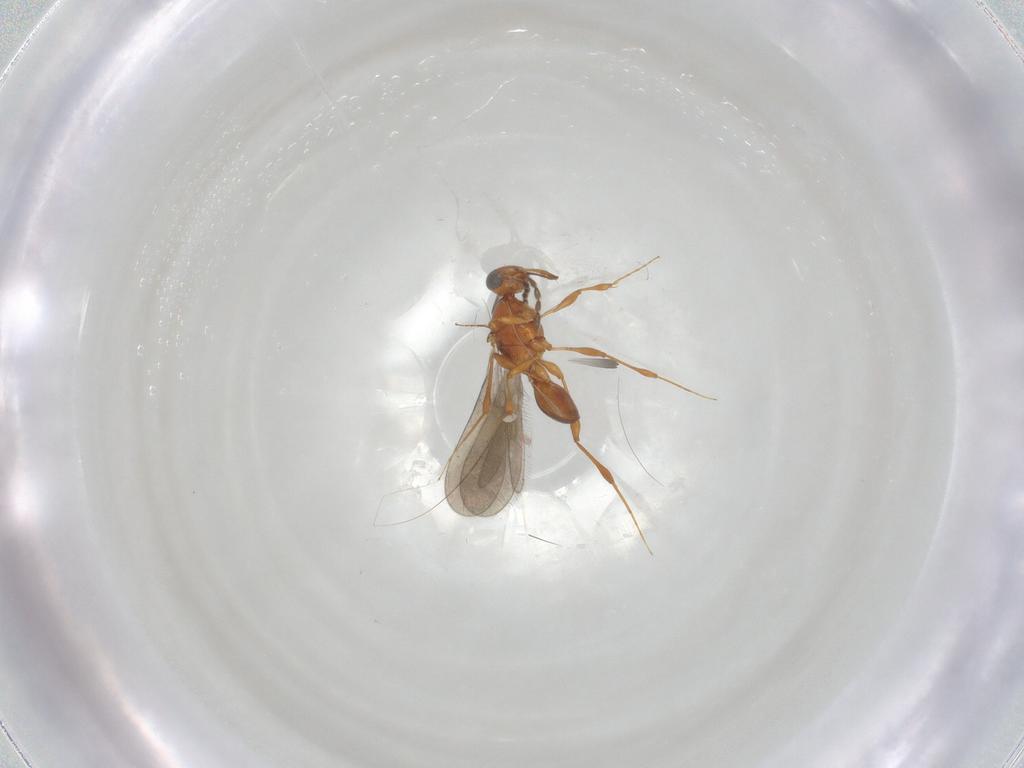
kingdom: Animalia
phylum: Arthropoda
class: Insecta
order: Hymenoptera
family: Platygastridae
